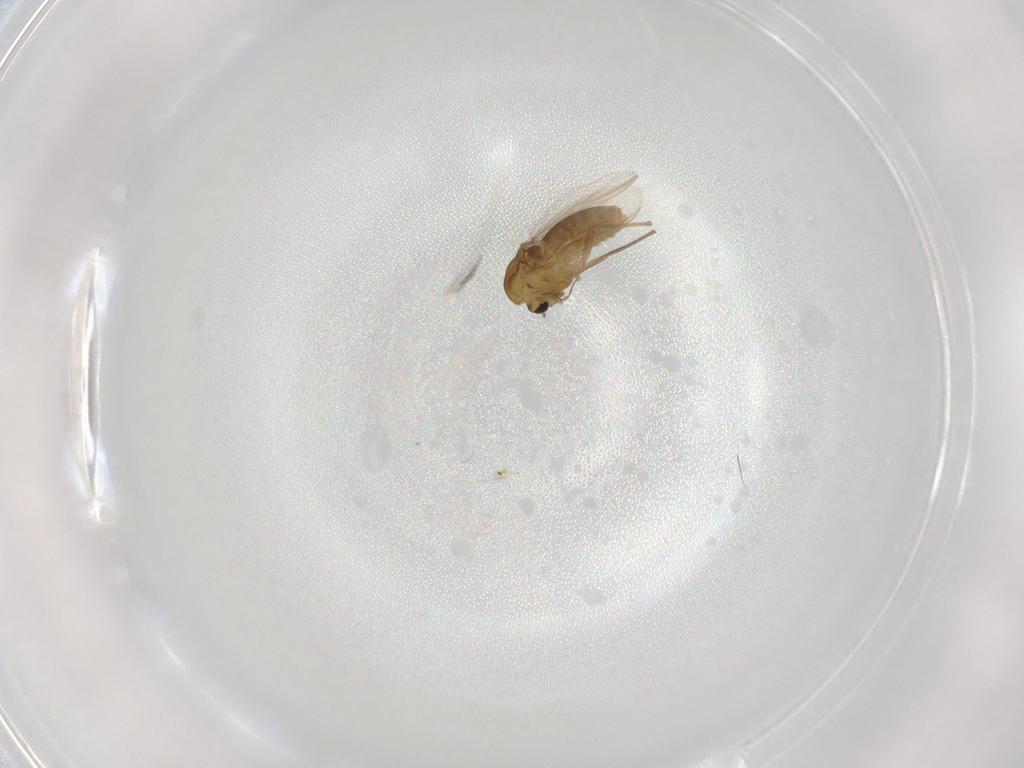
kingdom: Animalia
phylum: Arthropoda
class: Insecta
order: Diptera
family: Chironomidae
